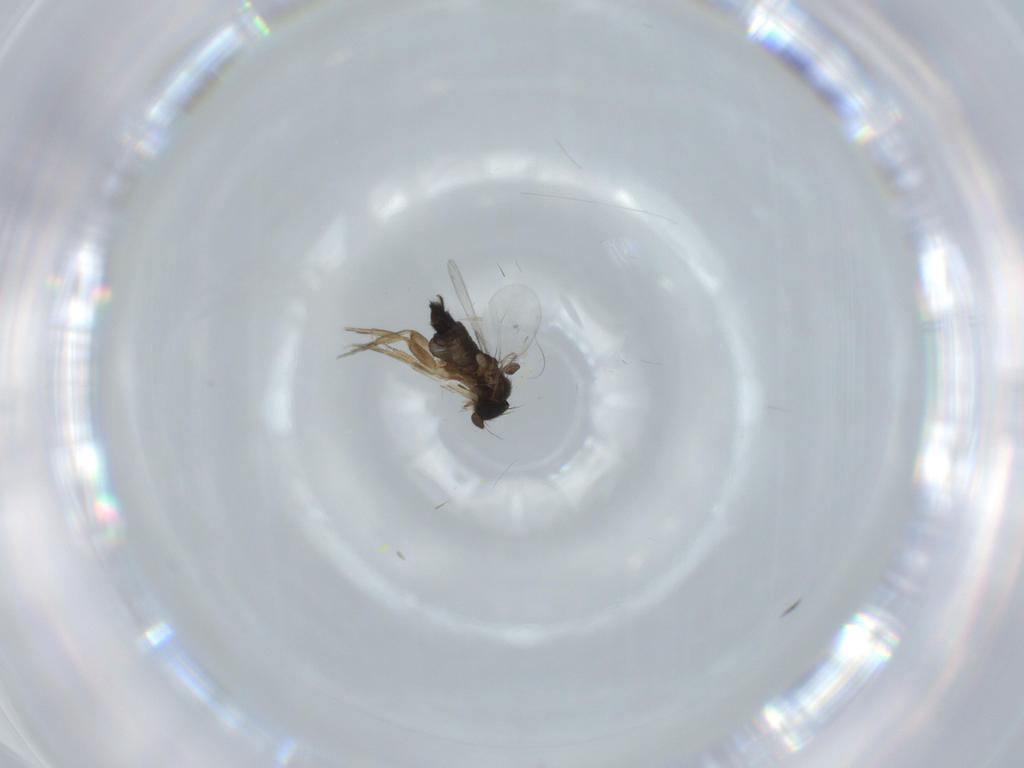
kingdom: Animalia
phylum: Arthropoda
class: Insecta
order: Diptera
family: Phoridae
